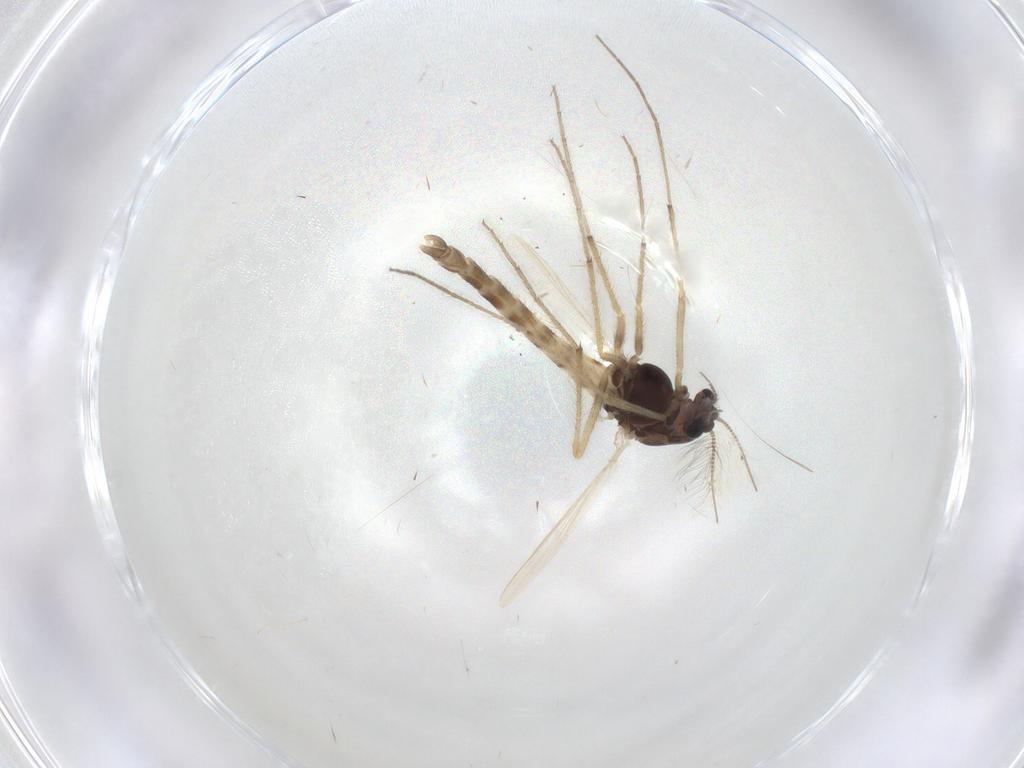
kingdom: Animalia
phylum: Arthropoda
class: Insecta
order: Diptera
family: Chironomidae
